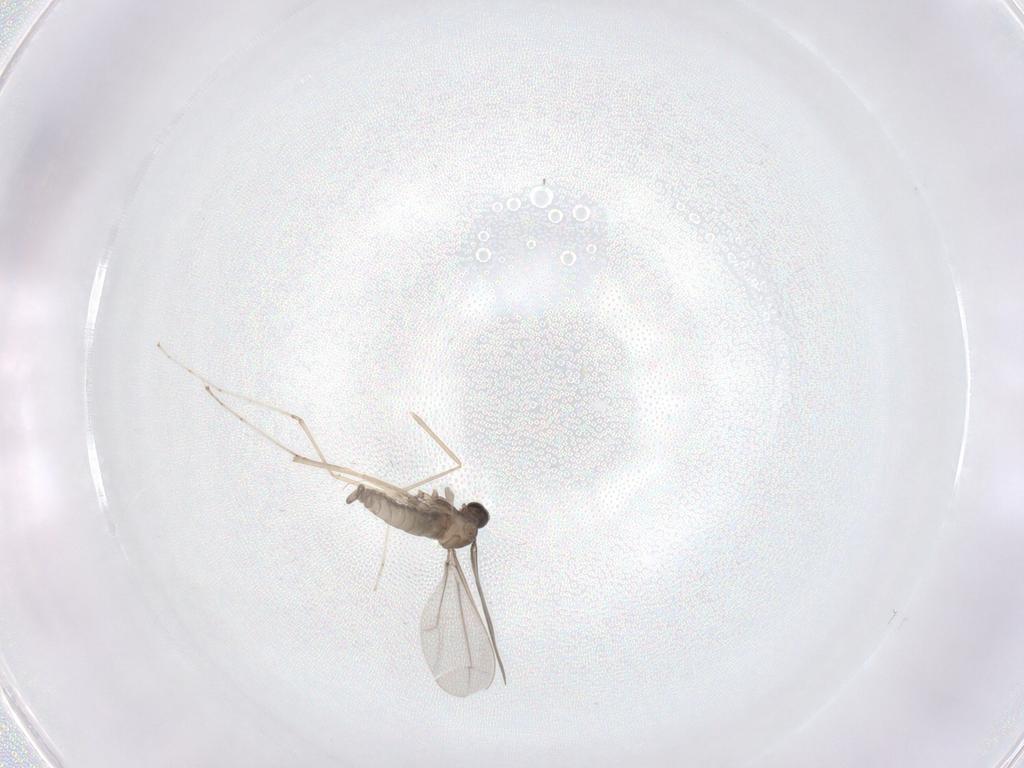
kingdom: Animalia
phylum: Arthropoda
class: Insecta
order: Diptera
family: Cecidomyiidae
